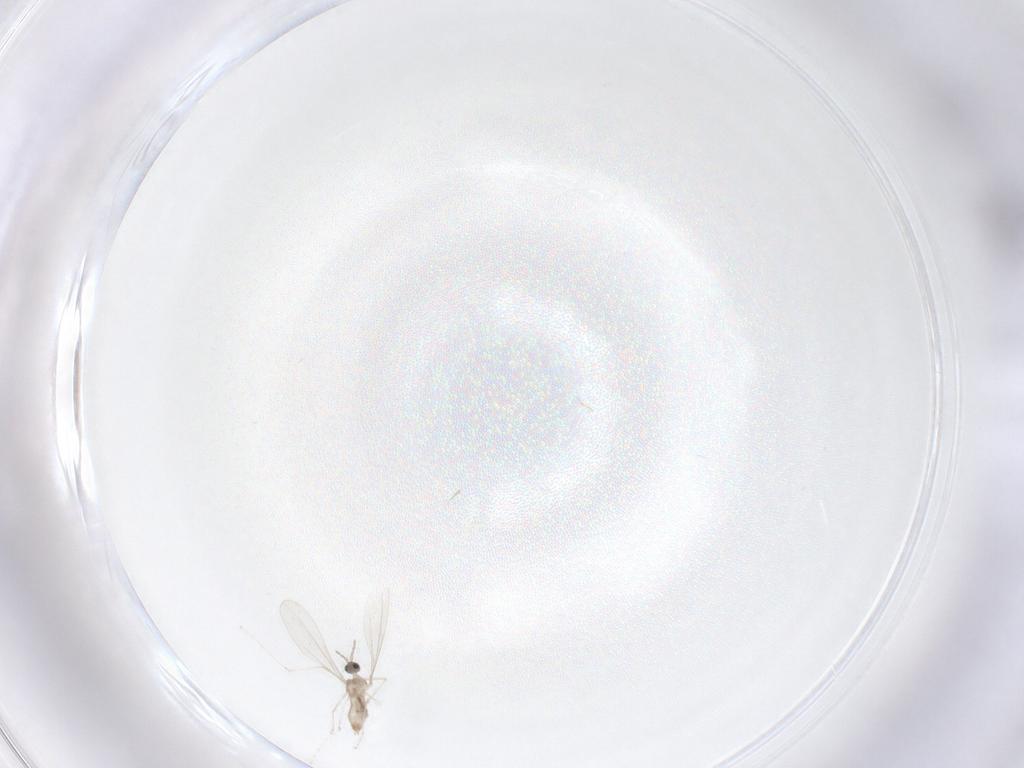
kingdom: Animalia
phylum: Arthropoda
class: Insecta
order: Diptera
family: Cecidomyiidae
